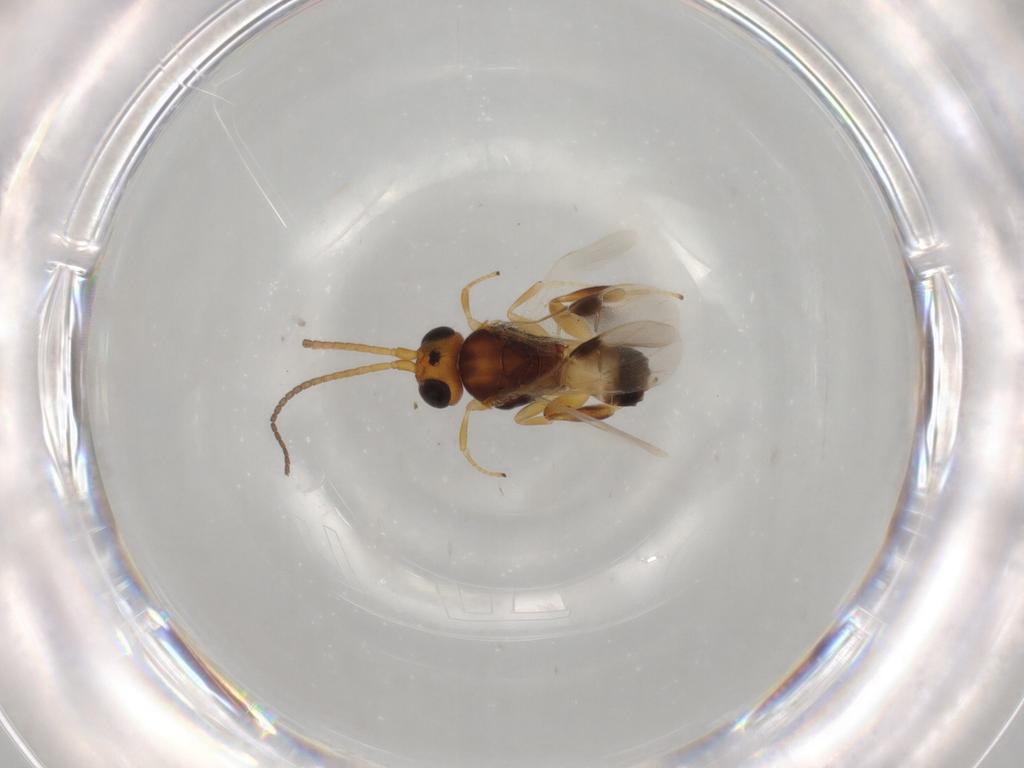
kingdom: Animalia
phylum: Arthropoda
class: Insecta
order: Hymenoptera
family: Braconidae
